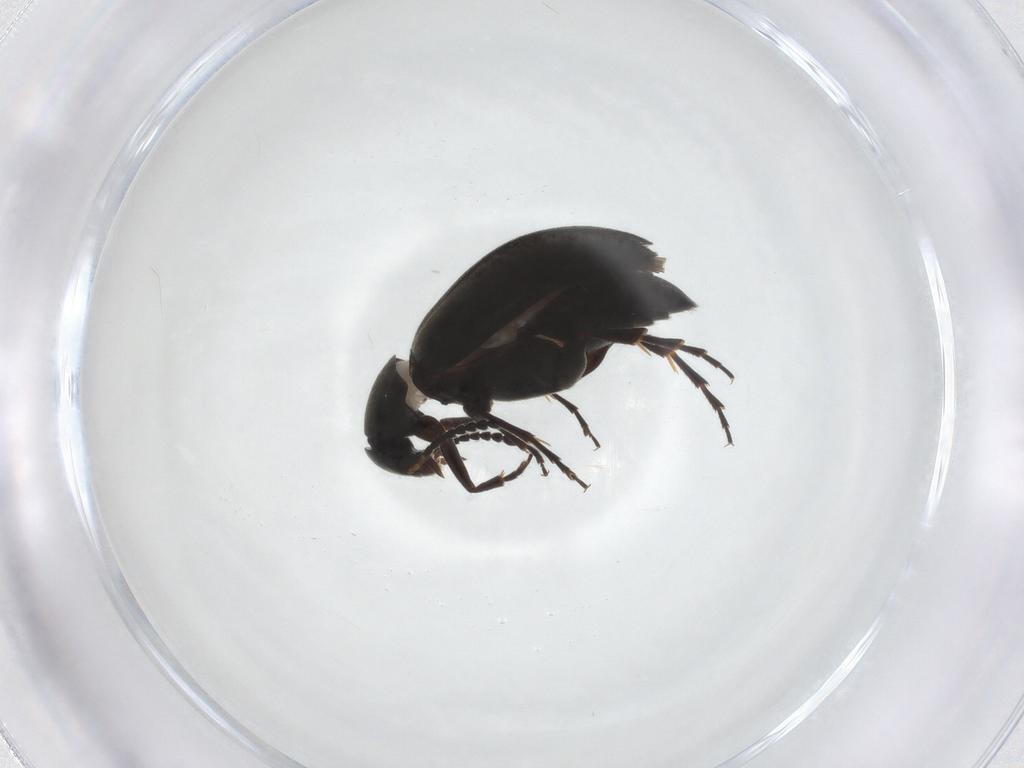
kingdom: Animalia
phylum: Arthropoda
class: Insecta
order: Coleoptera
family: Scraptiidae
